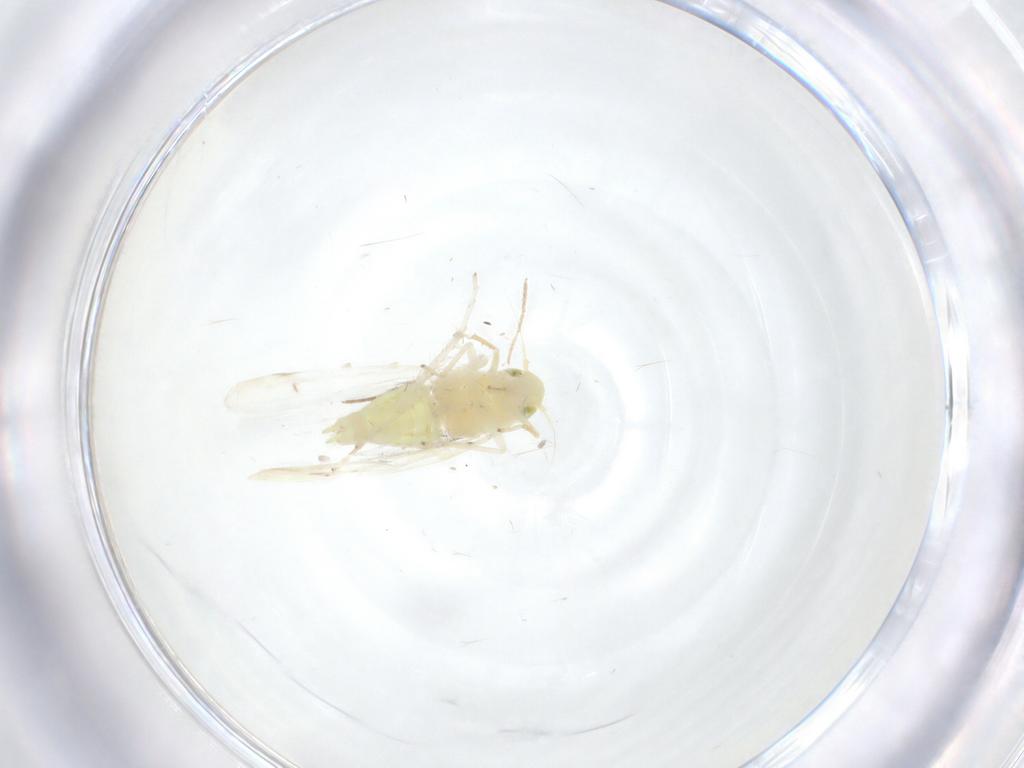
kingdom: Animalia
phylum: Arthropoda
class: Insecta
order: Hemiptera
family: Cicadellidae
